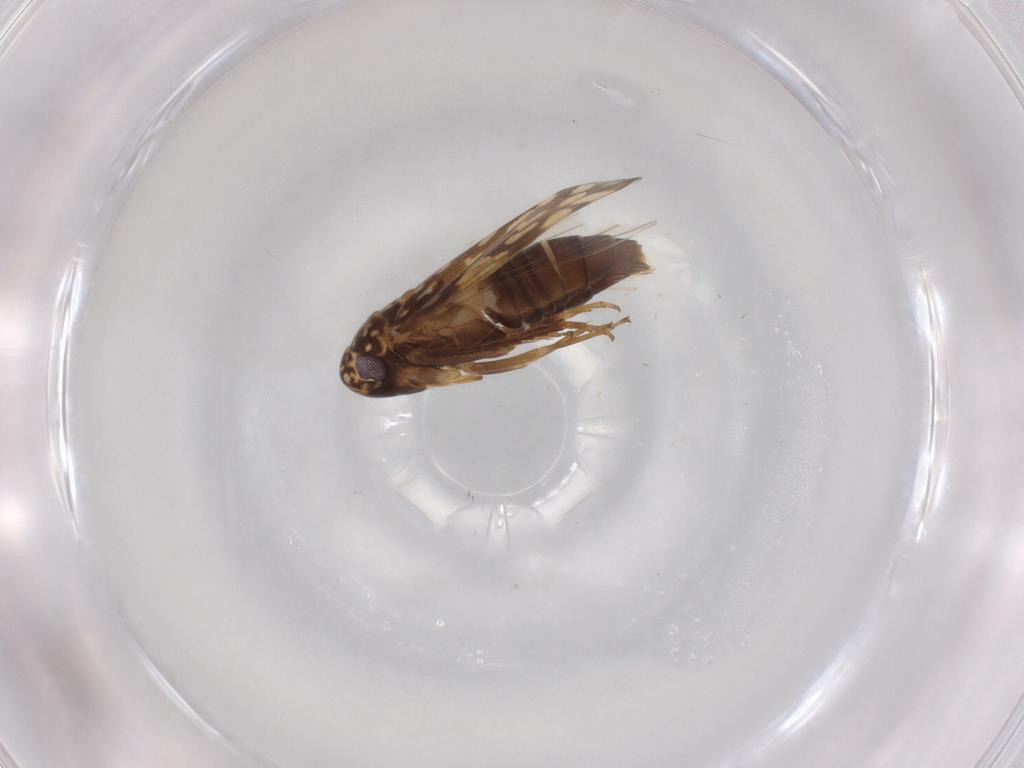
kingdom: Animalia
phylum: Arthropoda
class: Insecta
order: Hemiptera
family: Cicadellidae
